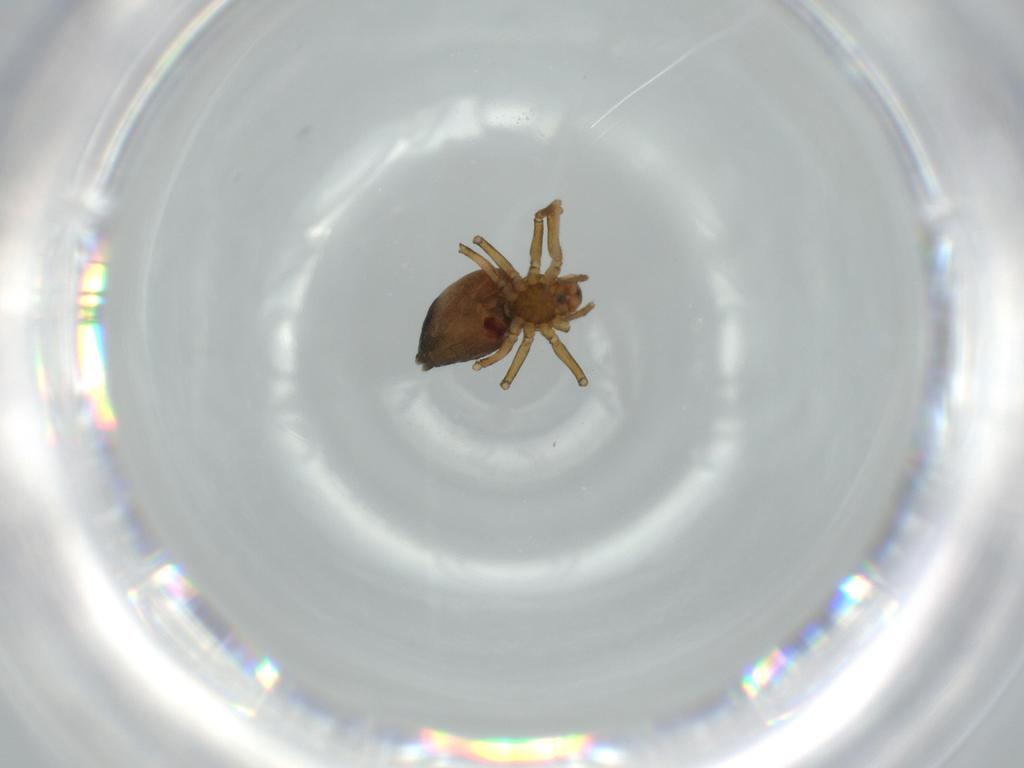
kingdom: Animalia
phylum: Arthropoda
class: Arachnida
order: Araneae
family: Linyphiidae
